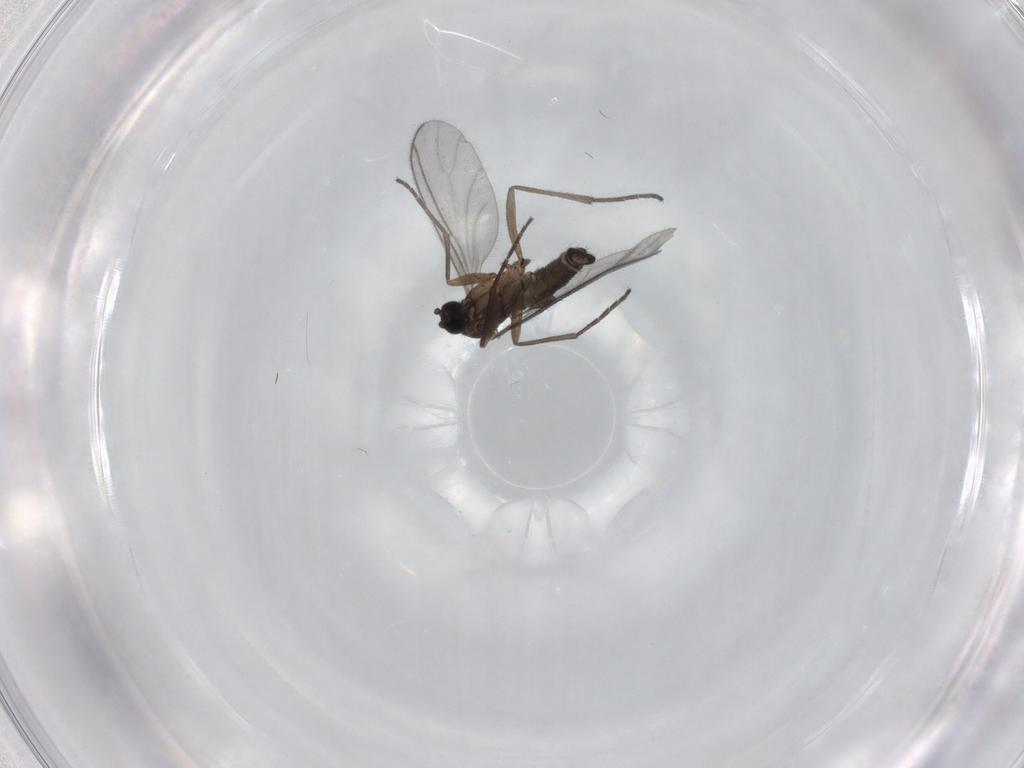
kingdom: Animalia
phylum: Arthropoda
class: Insecta
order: Diptera
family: Sciaridae
